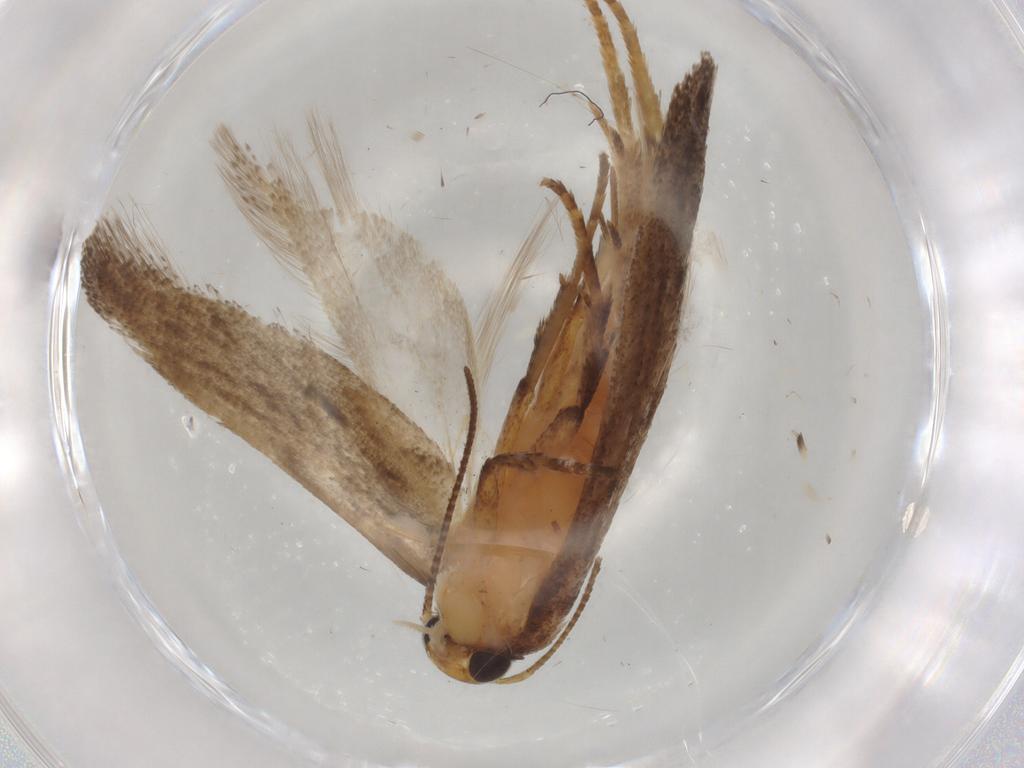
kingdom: Animalia
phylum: Arthropoda
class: Insecta
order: Lepidoptera
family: Gelechiidae
